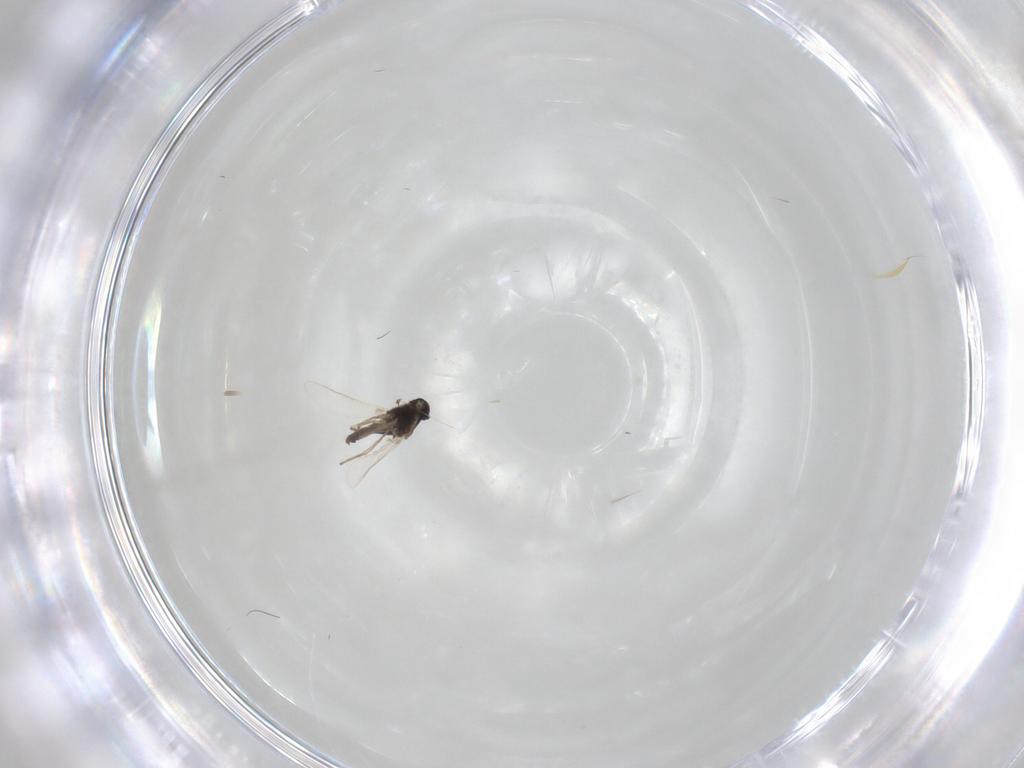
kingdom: Animalia
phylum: Arthropoda
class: Insecta
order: Diptera
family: Chironomidae
